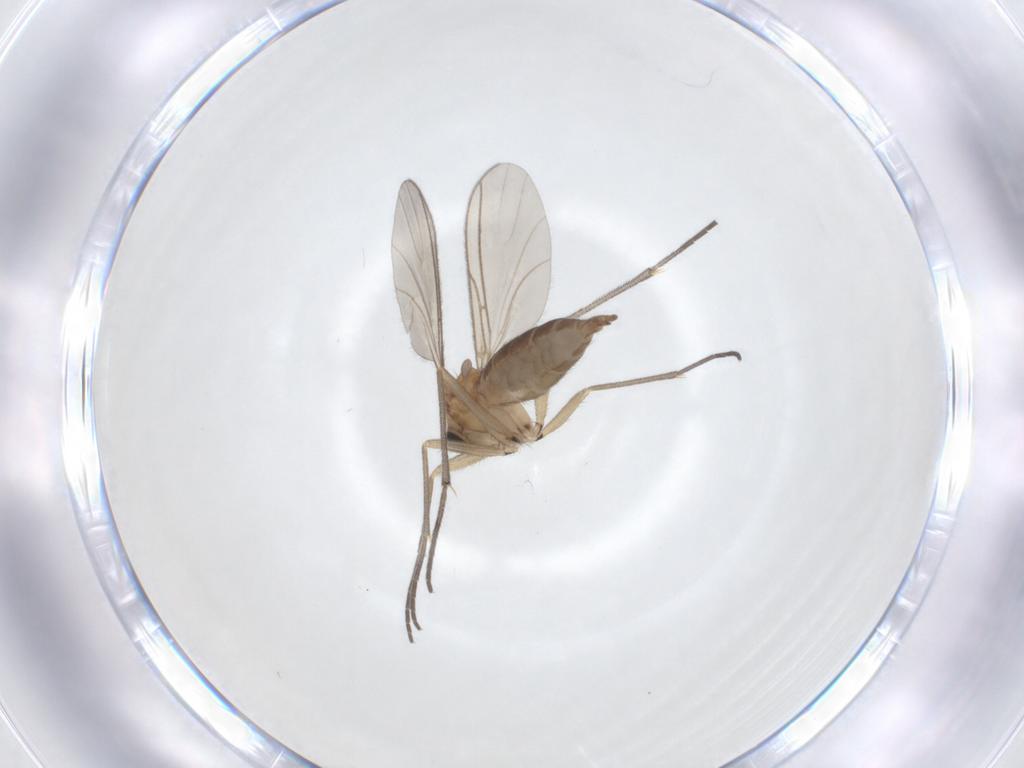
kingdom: Animalia
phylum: Arthropoda
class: Insecta
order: Diptera
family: Sciaridae
